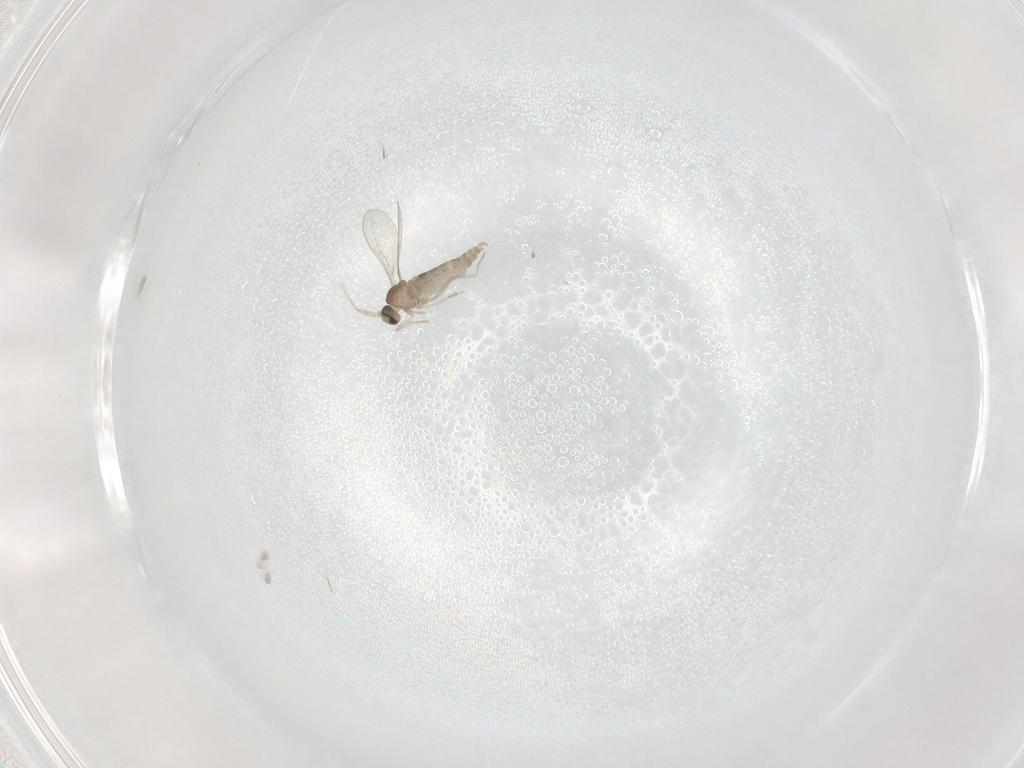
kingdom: Animalia
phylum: Arthropoda
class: Insecta
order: Diptera
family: Cecidomyiidae
